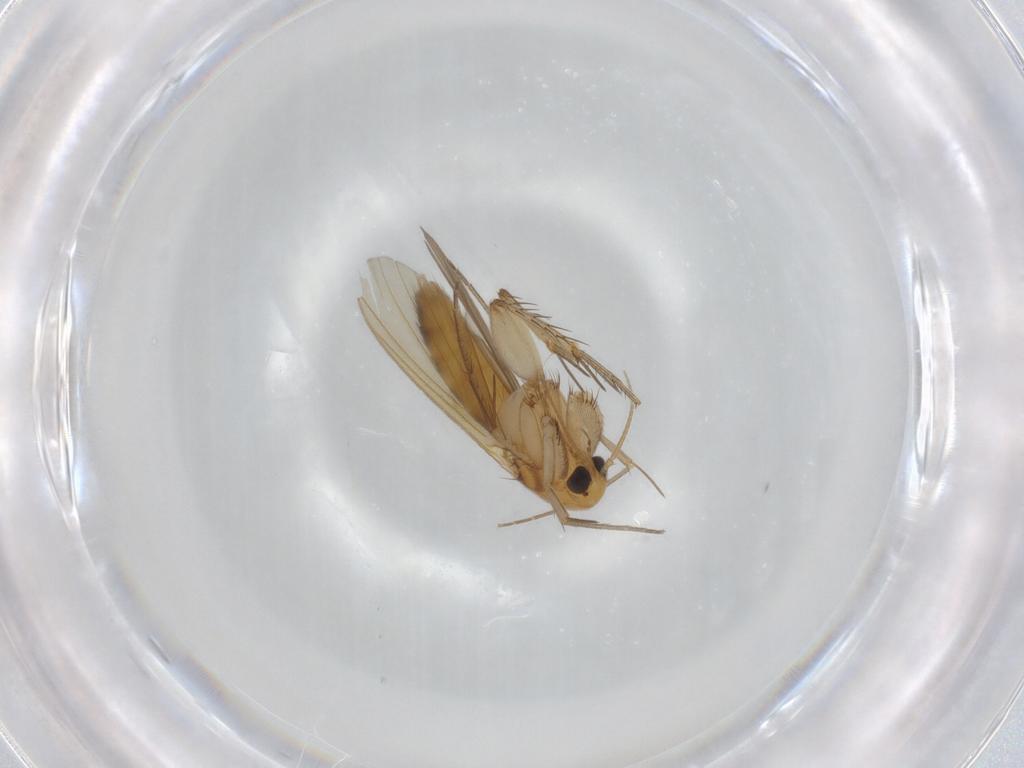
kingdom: Animalia
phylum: Arthropoda
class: Insecta
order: Diptera
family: Mycetophilidae
